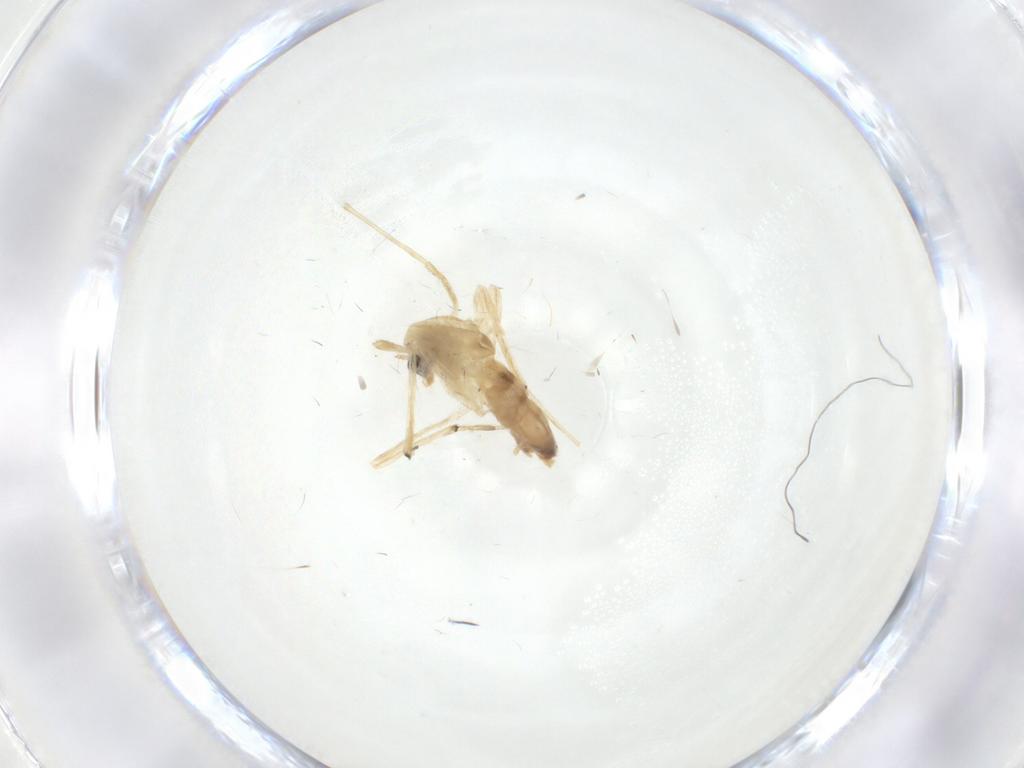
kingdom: Animalia
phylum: Arthropoda
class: Insecta
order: Diptera
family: Chironomidae
